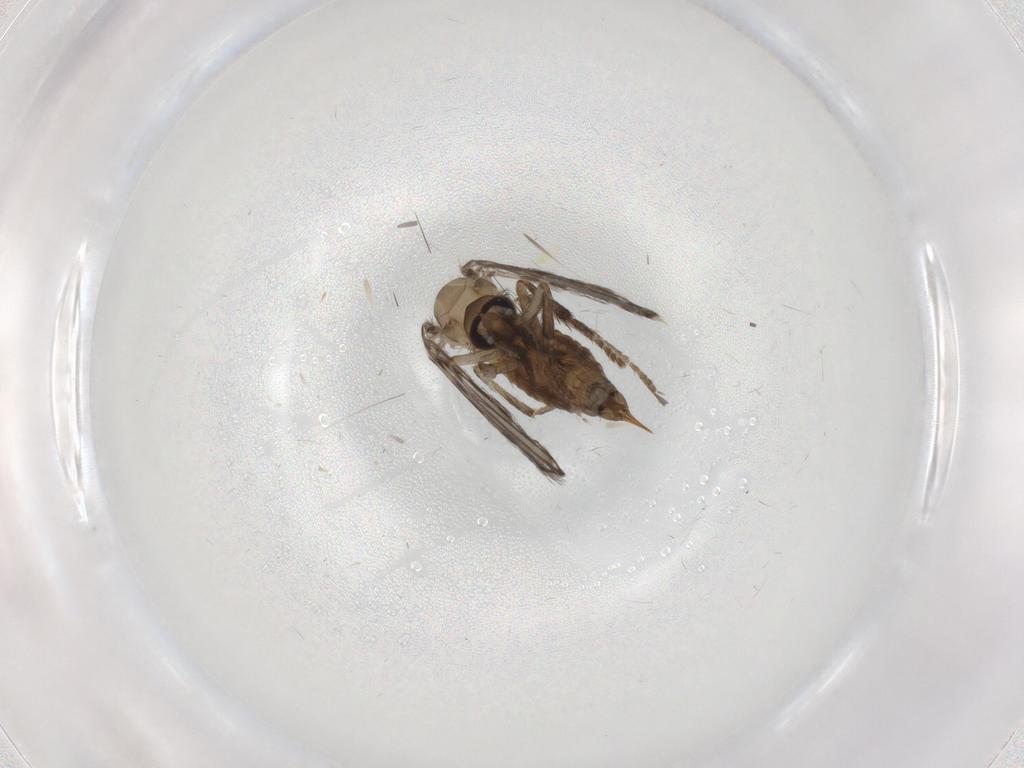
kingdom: Animalia
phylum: Arthropoda
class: Insecta
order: Diptera
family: Psychodidae
